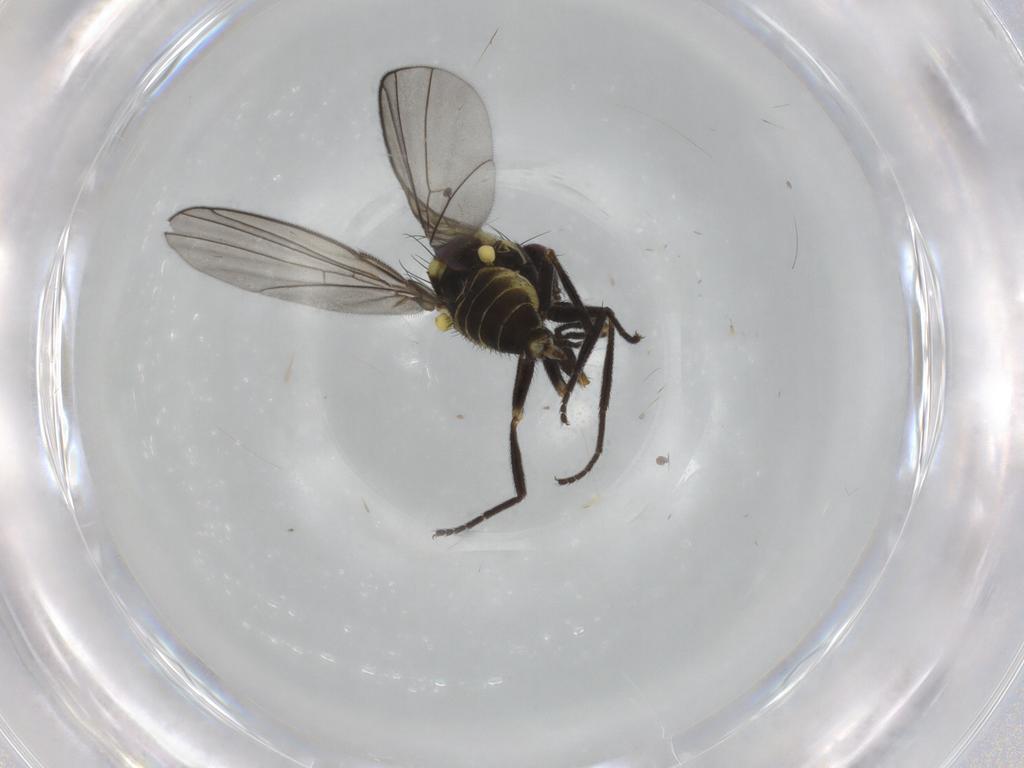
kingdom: Animalia
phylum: Arthropoda
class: Insecta
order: Diptera
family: Agromyzidae
